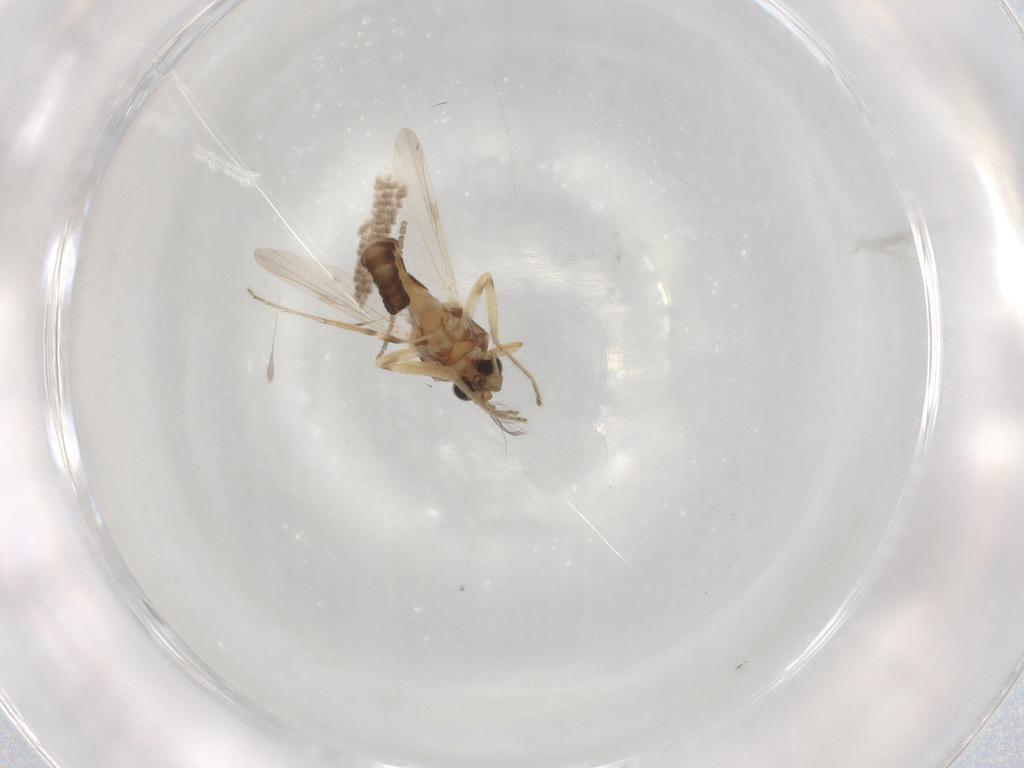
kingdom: Animalia
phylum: Arthropoda
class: Insecta
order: Diptera
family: Ceratopogonidae
